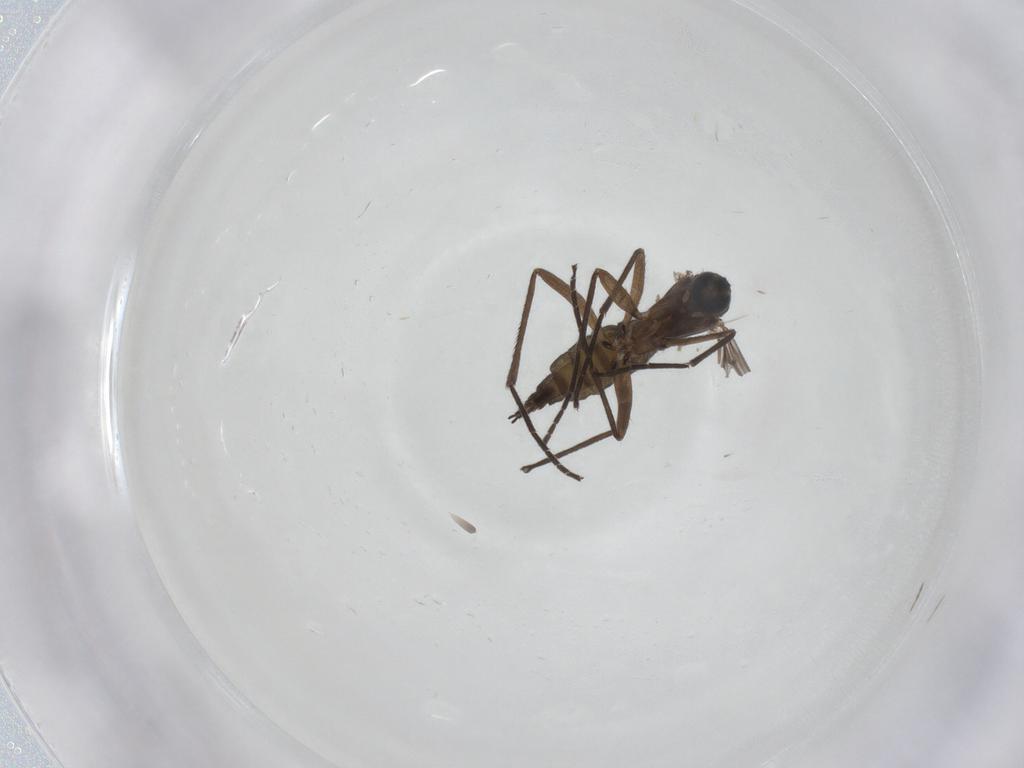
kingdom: Animalia
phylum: Arthropoda
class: Insecta
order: Diptera
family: Sciaridae
